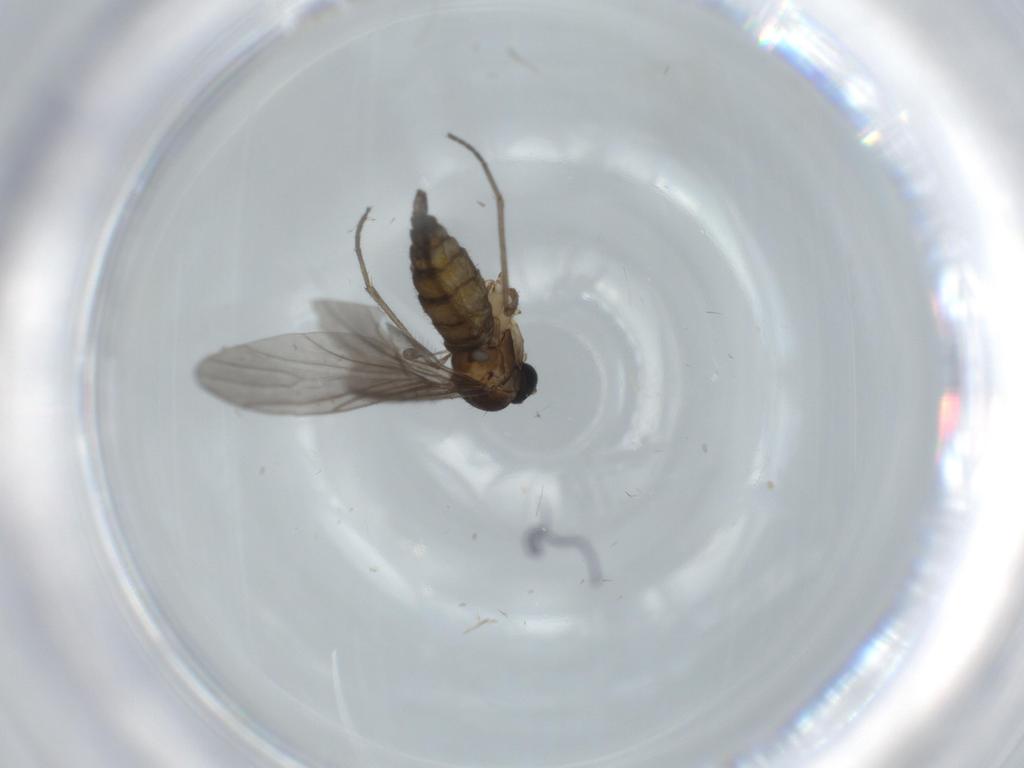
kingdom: Animalia
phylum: Arthropoda
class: Insecta
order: Diptera
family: Sciaridae
